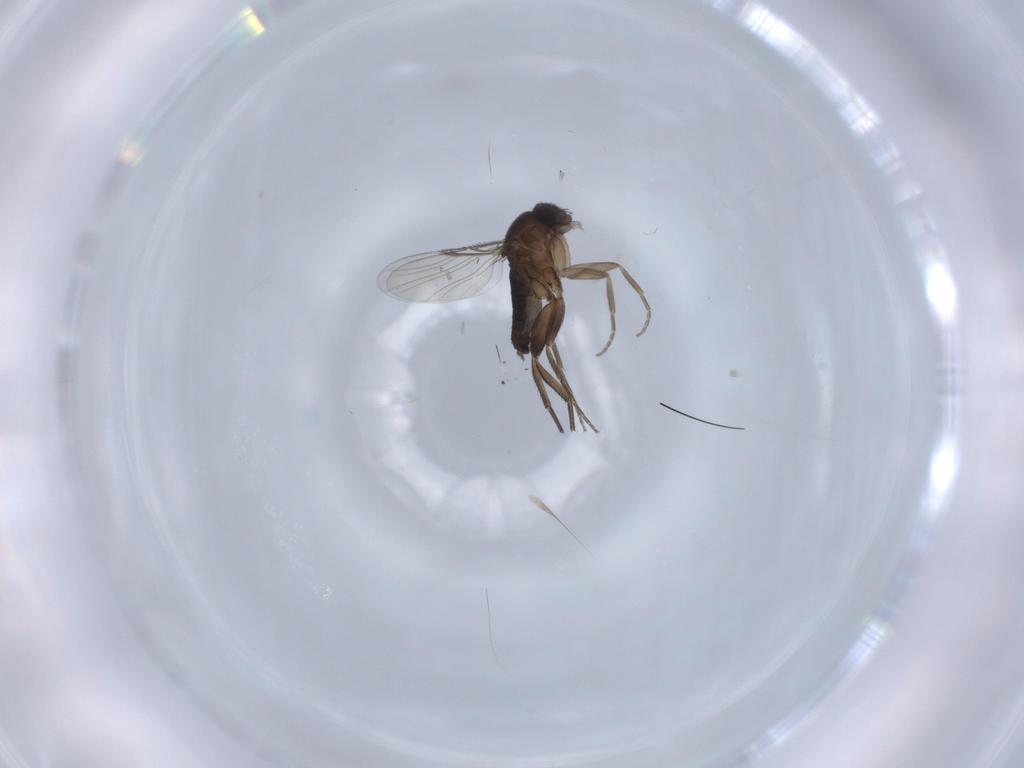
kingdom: Animalia
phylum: Arthropoda
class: Insecta
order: Diptera
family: Phoridae
